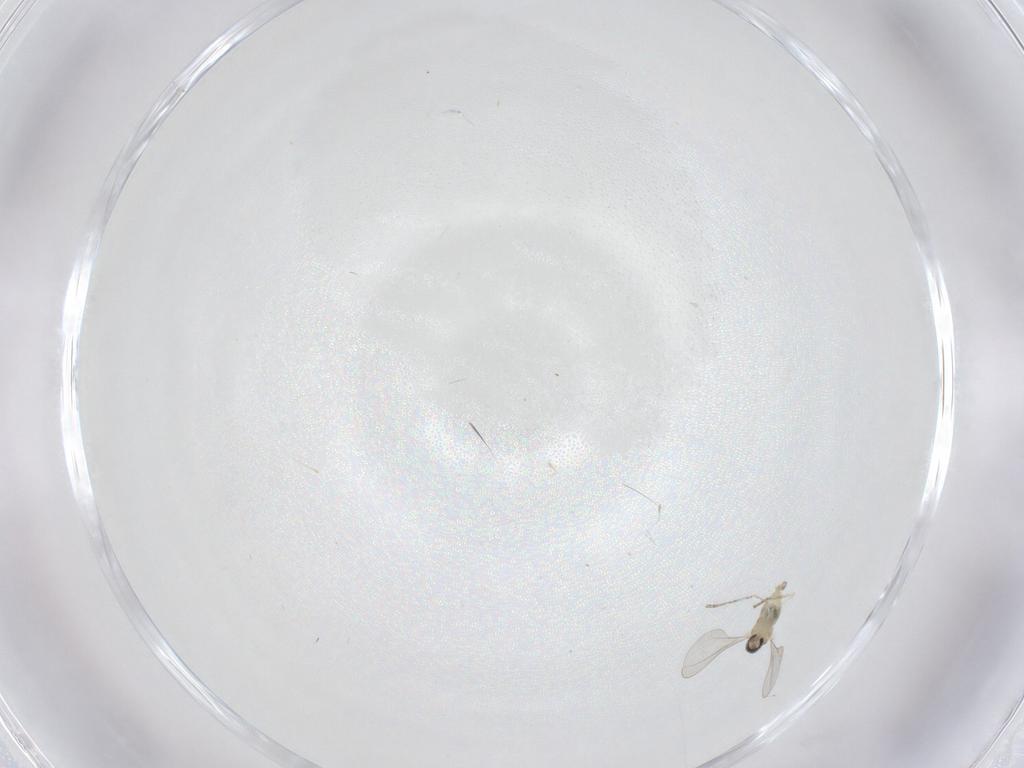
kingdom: Animalia
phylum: Arthropoda
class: Insecta
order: Diptera
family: Cecidomyiidae
